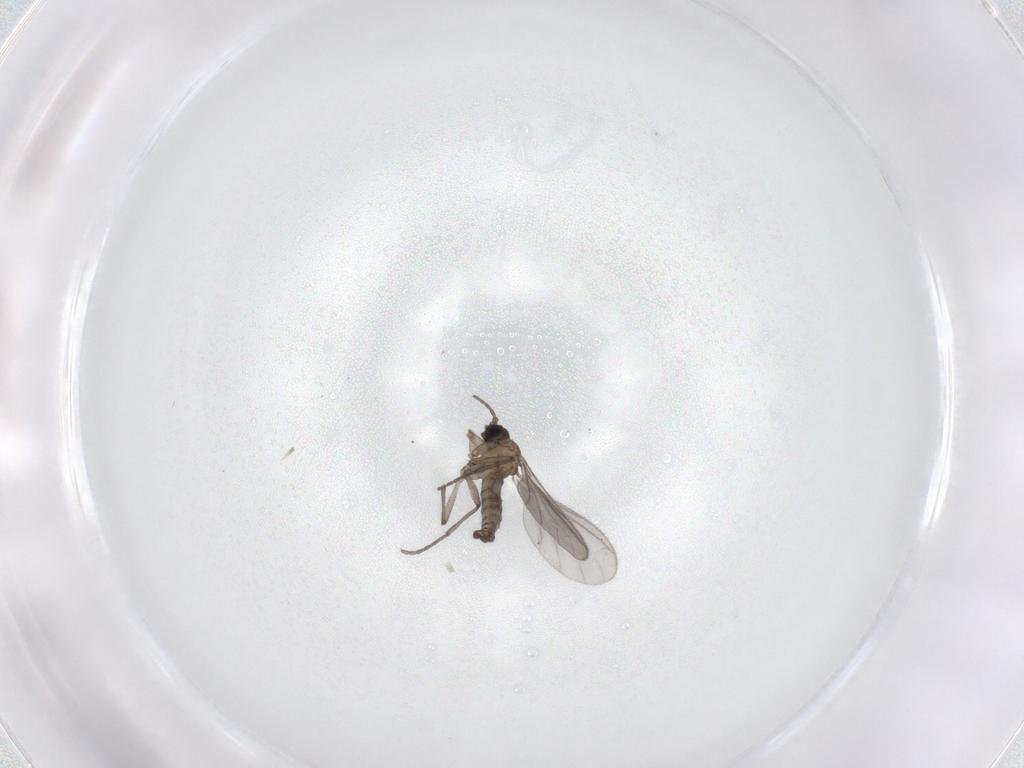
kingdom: Animalia
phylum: Arthropoda
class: Insecta
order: Diptera
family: Sciaridae
